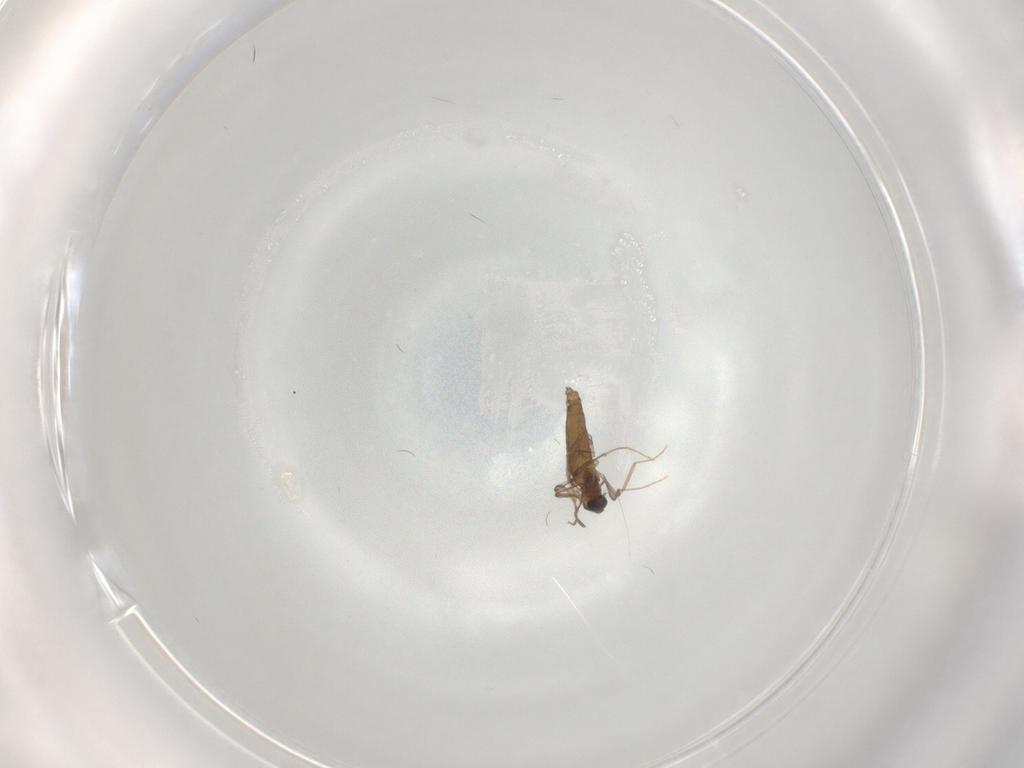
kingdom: Animalia
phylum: Arthropoda
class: Insecta
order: Diptera
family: Chironomidae
